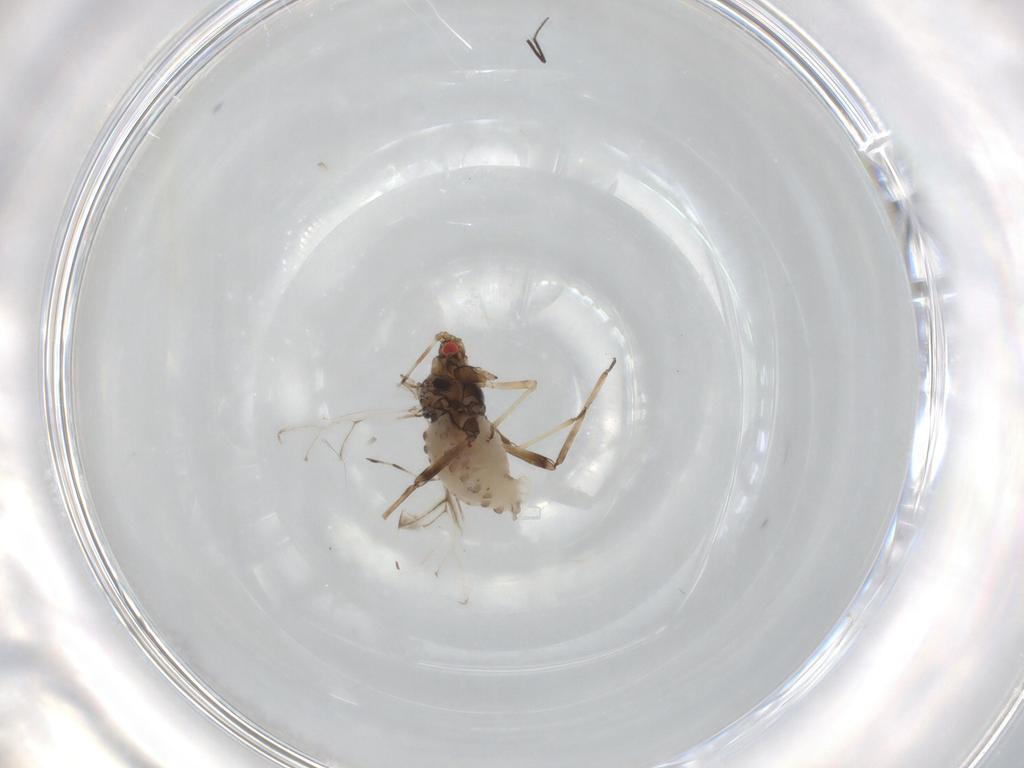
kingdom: Animalia
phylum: Arthropoda
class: Insecta
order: Hemiptera
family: Aphididae
